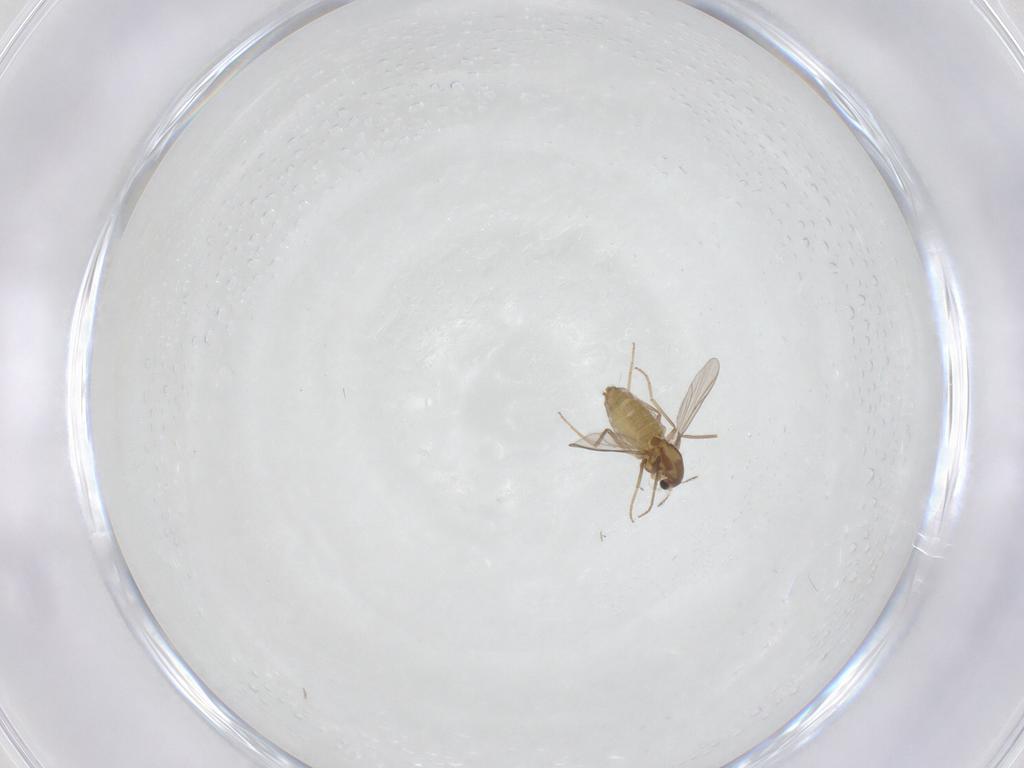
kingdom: Animalia
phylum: Arthropoda
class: Insecta
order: Diptera
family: Chironomidae
